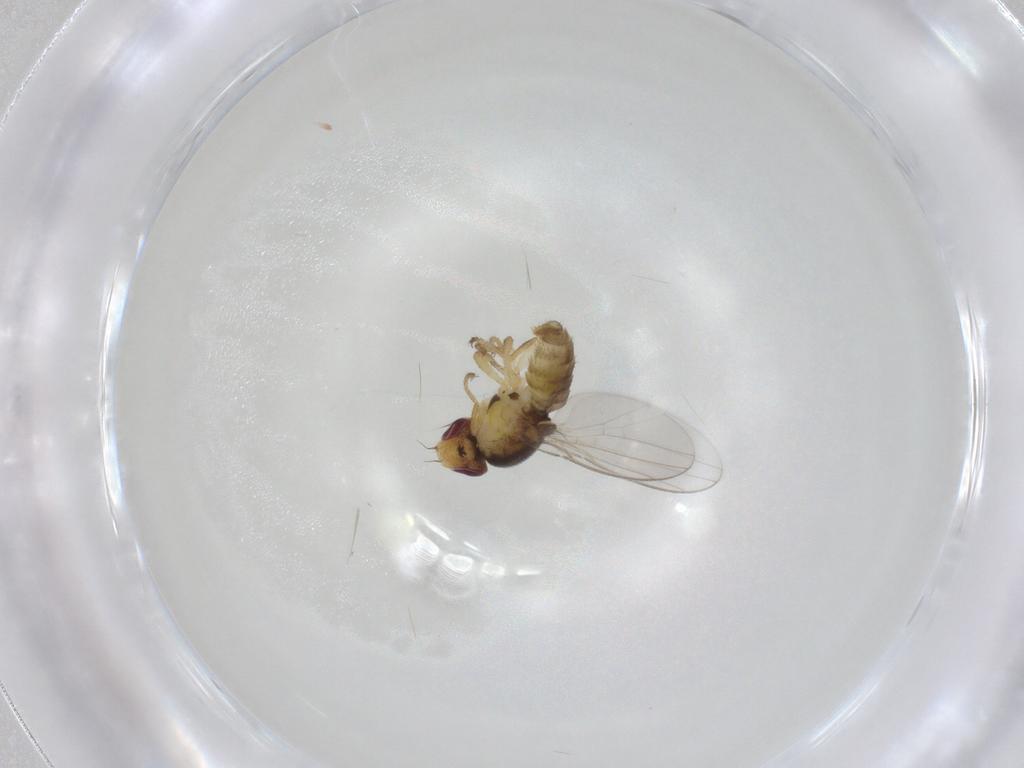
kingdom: Animalia
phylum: Arthropoda
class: Insecta
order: Diptera
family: Chloropidae
